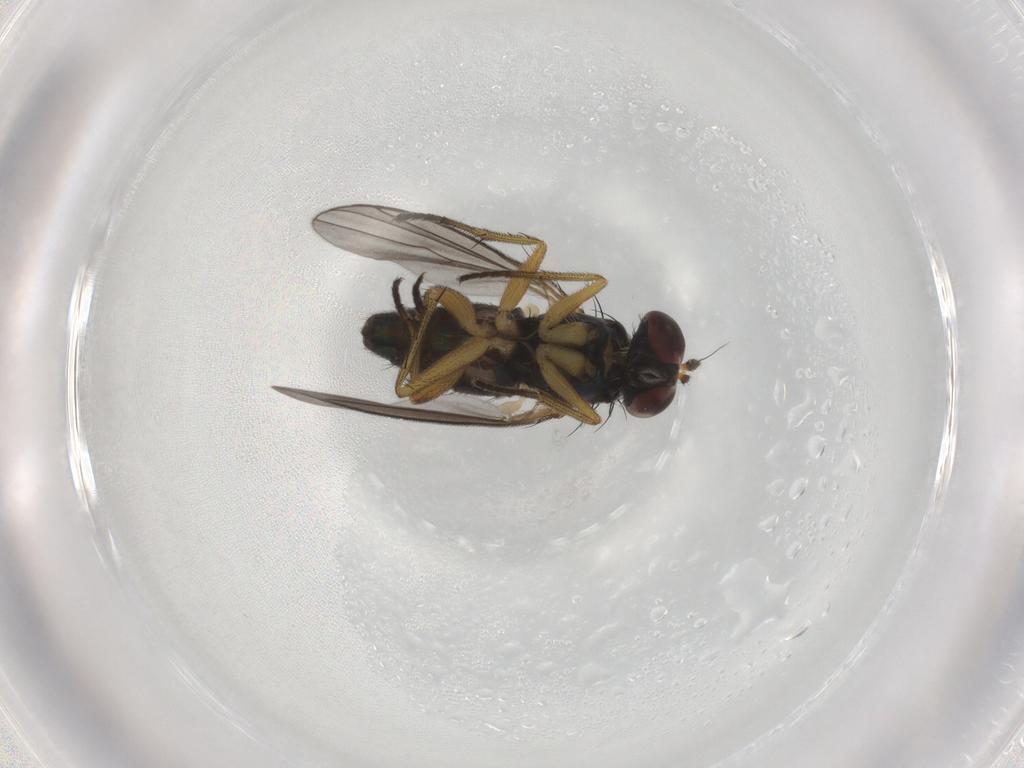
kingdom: Animalia
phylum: Arthropoda
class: Insecta
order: Diptera
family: Dolichopodidae
